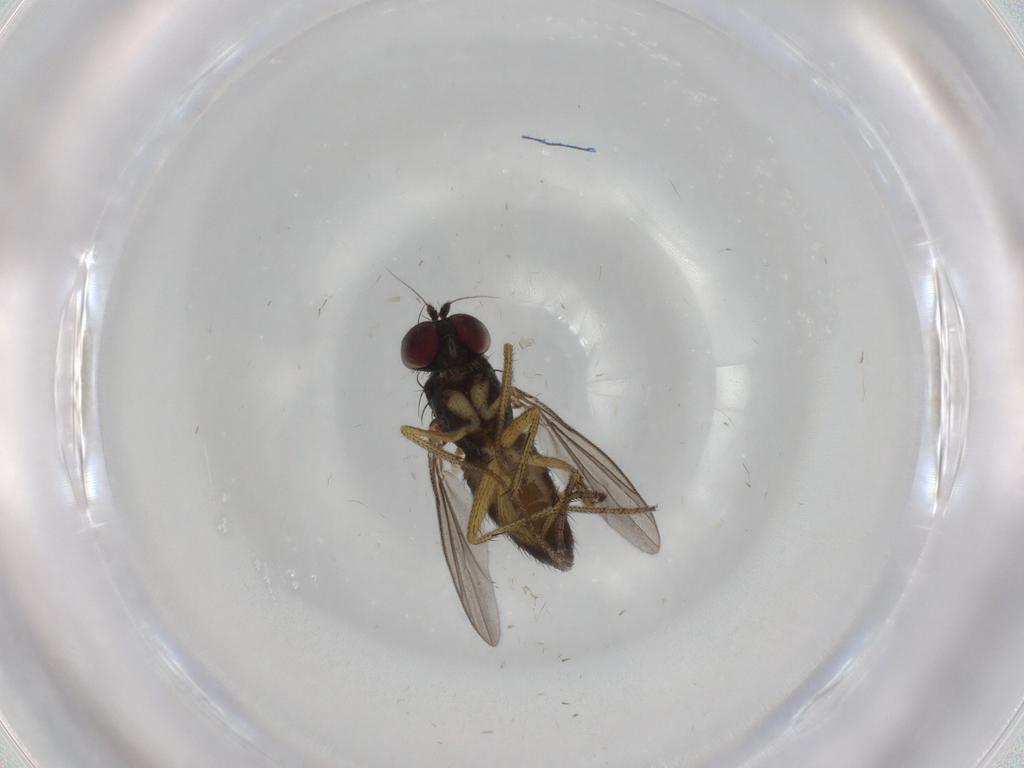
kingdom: Animalia
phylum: Arthropoda
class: Insecta
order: Diptera
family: Dolichopodidae
